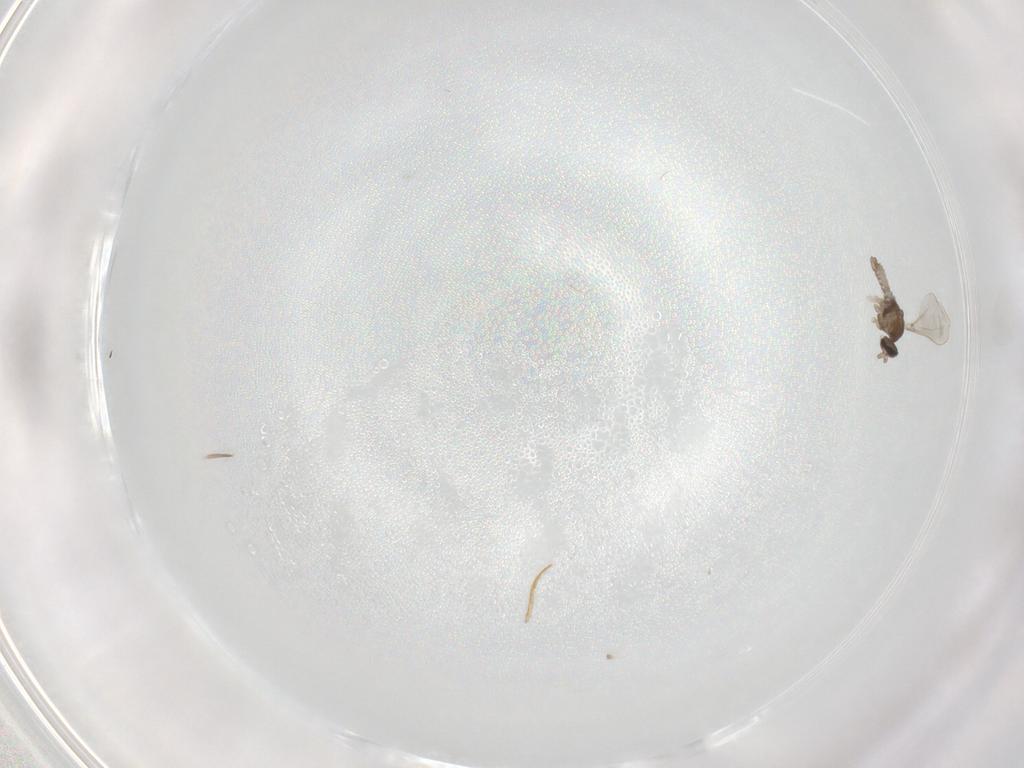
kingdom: Animalia
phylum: Arthropoda
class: Insecta
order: Diptera
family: Cecidomyiidae
